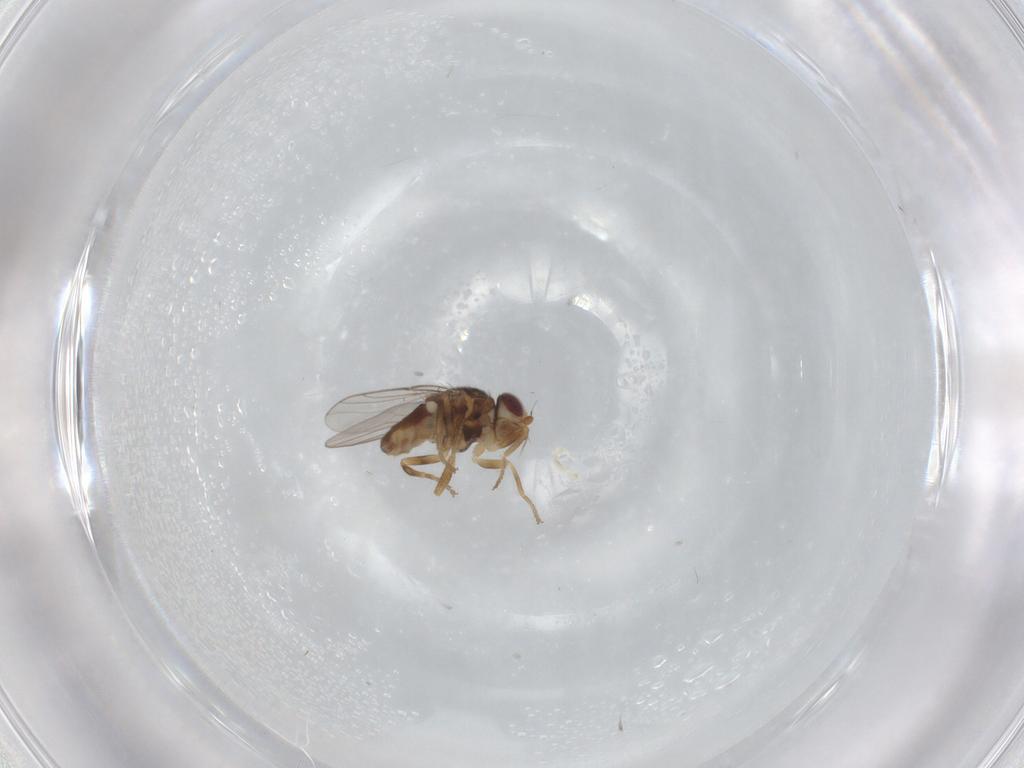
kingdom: Animalia
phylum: Arthropoda
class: Insecta
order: Diptera
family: Chloropidae
